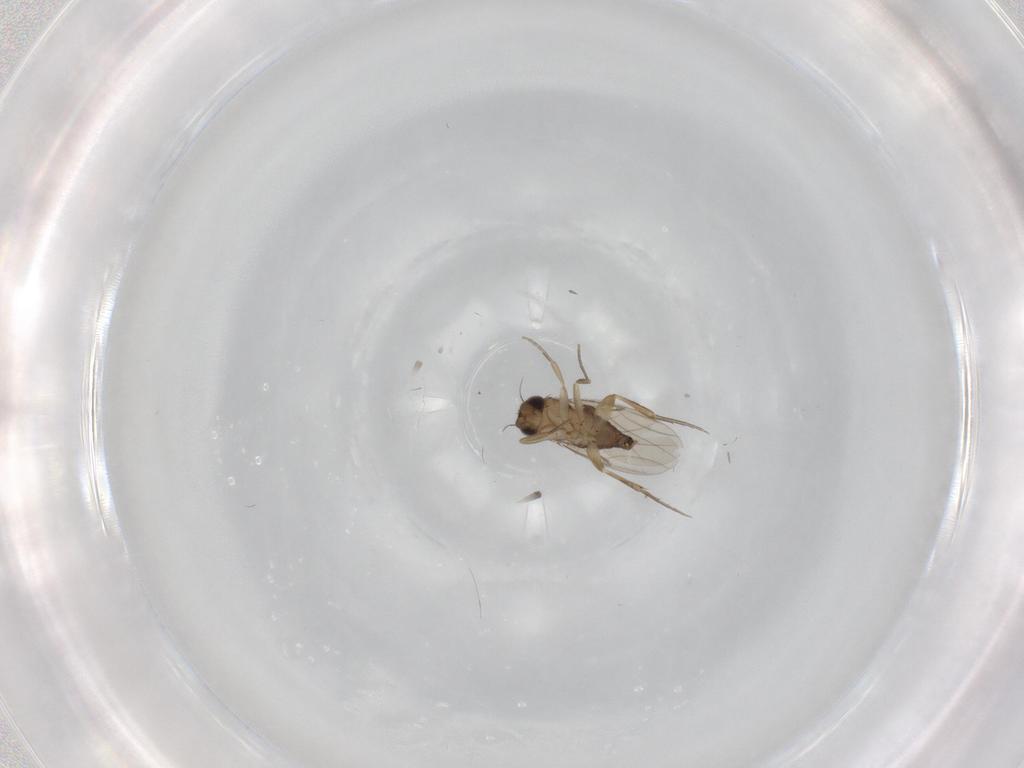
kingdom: Animalia
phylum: Arthropoda
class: Insecta
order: Diptera
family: Phoridae
